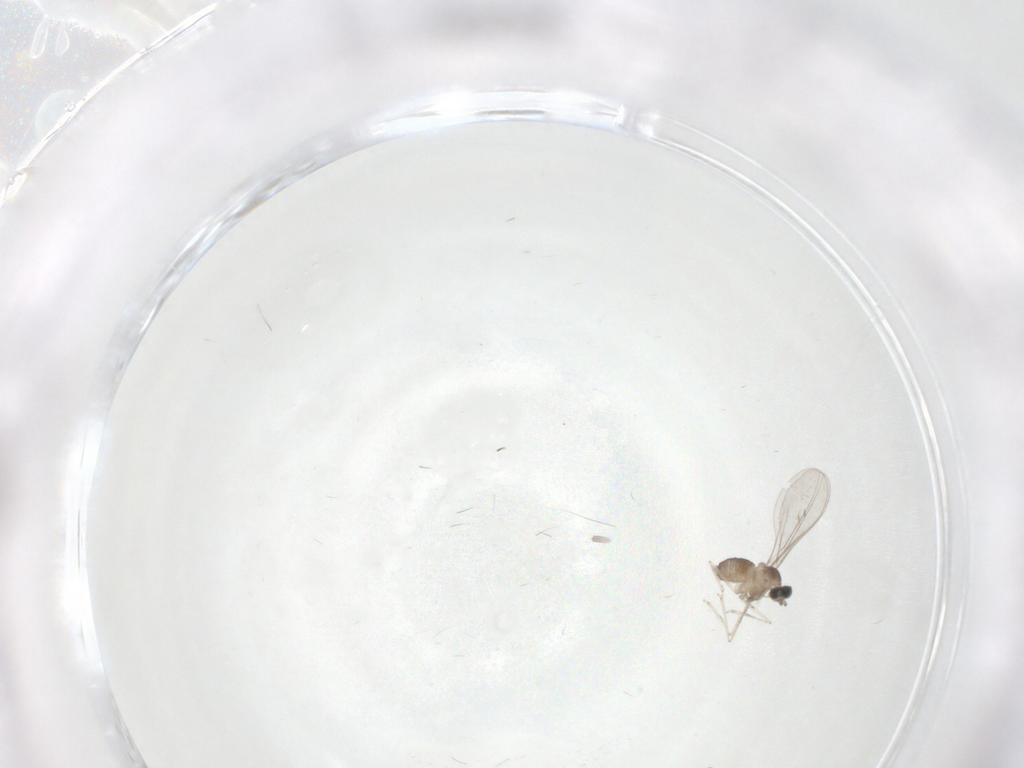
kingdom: Animalia
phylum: Arthropoda
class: Insecta
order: Diptera
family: Cecidomyiidae
